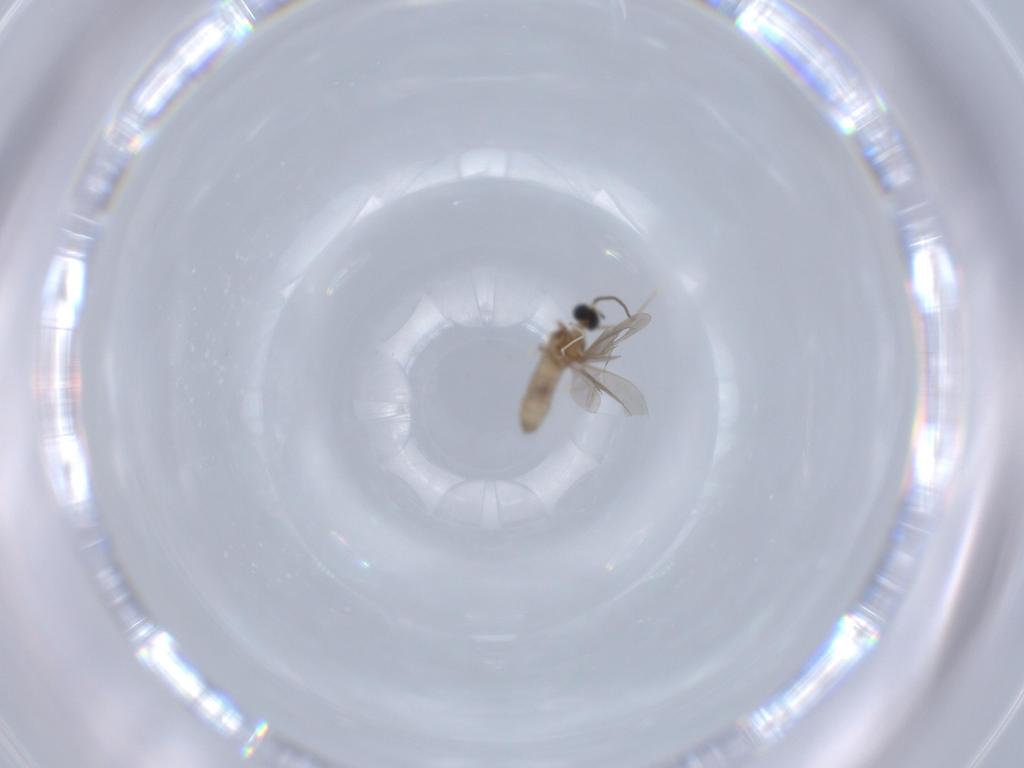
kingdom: Animalia
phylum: Arthropoda
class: Insecta
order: Diptera
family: Cecidomyiidae
